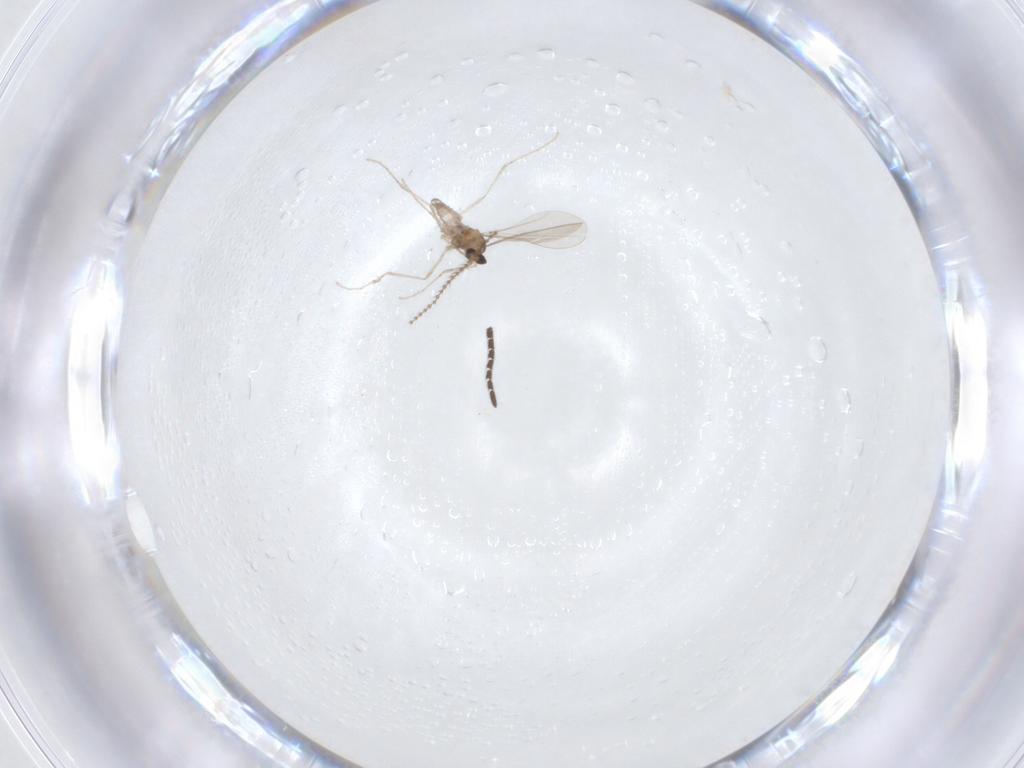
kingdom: Animalia
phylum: Arthropoda
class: Insecta
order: Diptera
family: Cecidomyiidae
